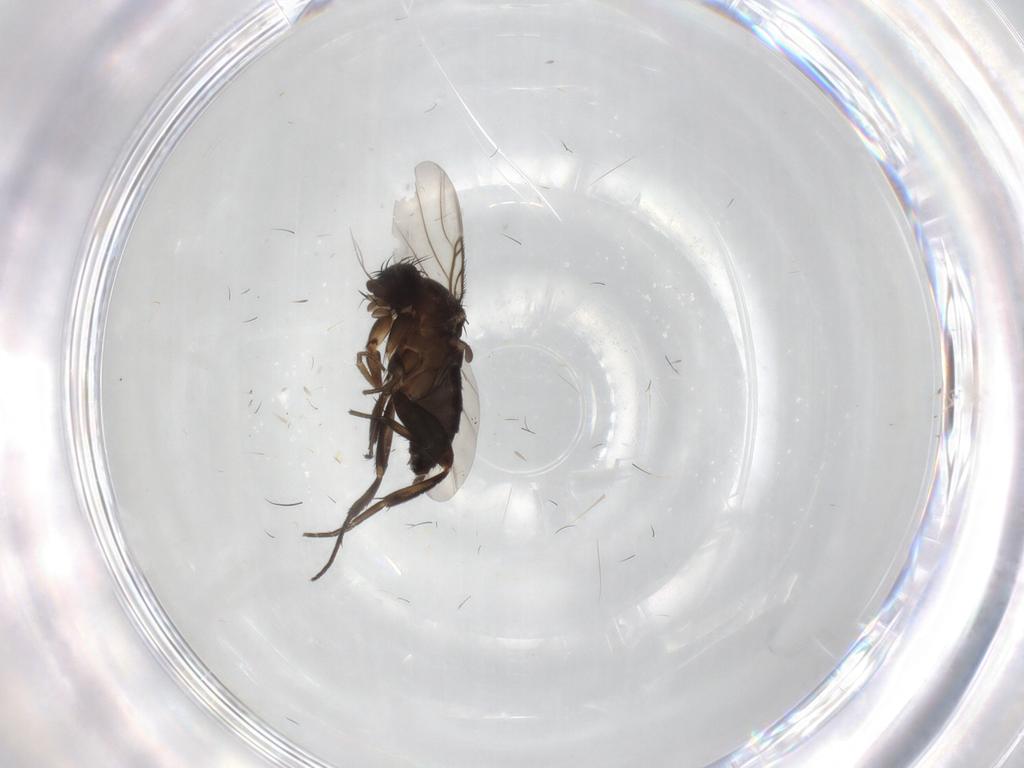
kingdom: Animalia
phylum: Arthropoda
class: Insecta
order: Diptera
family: Phoridae
